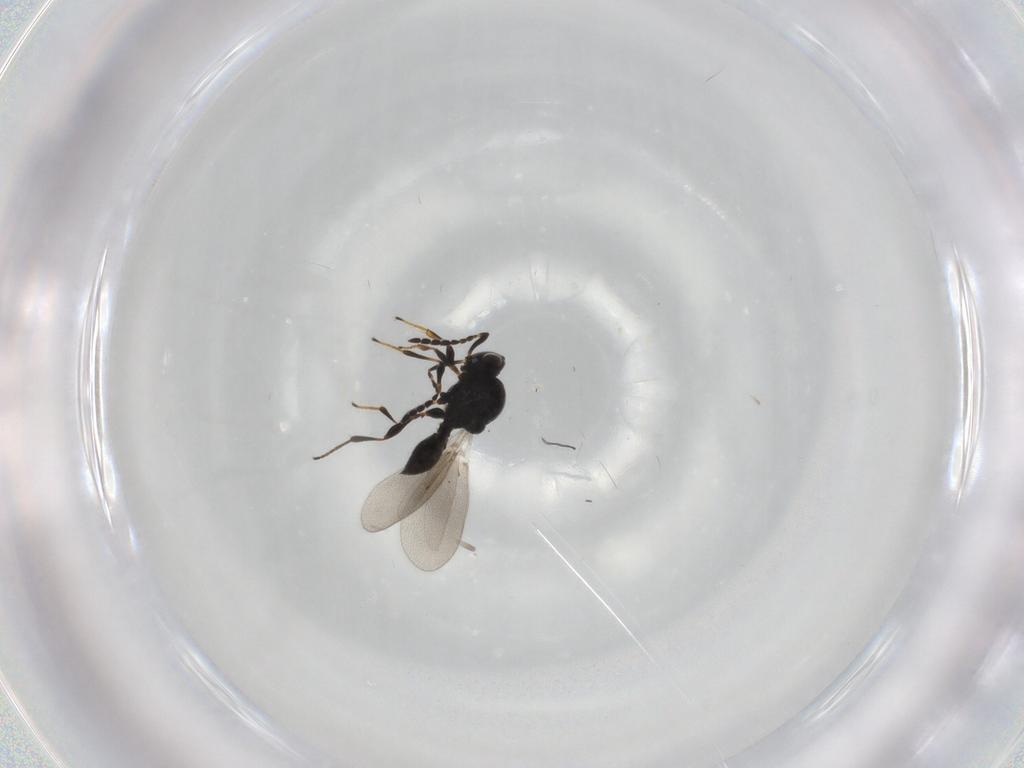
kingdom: Animalia
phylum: Arthropoda
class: Insecta
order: Hymenoptera
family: Platygastridae
